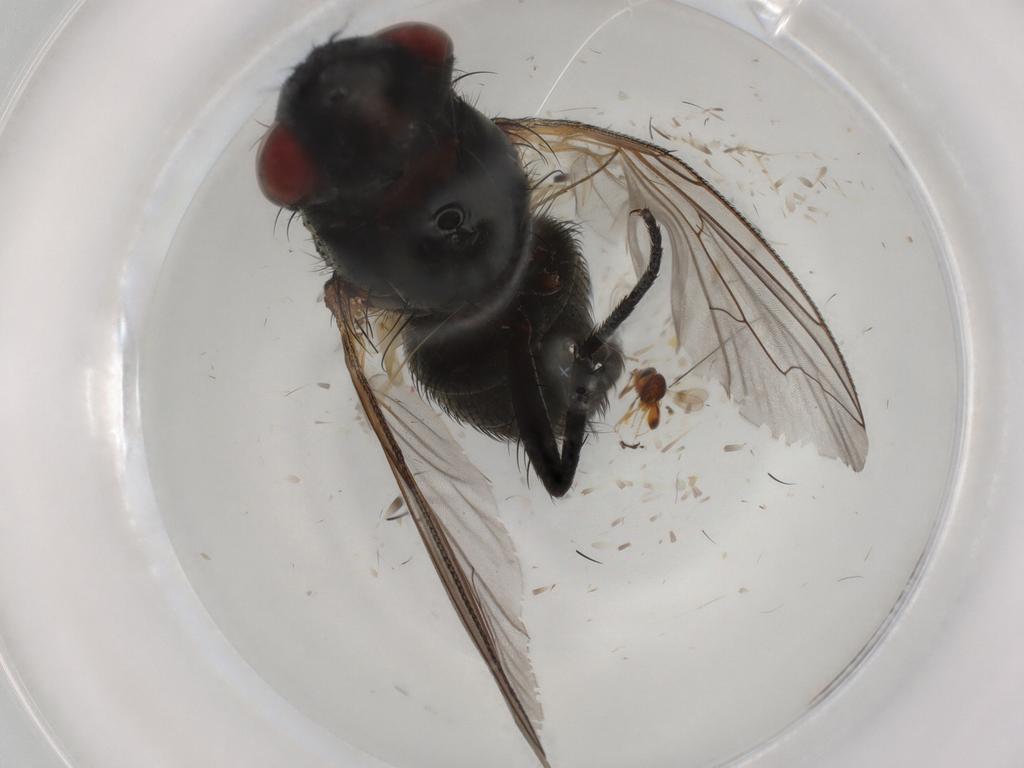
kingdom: Animalia
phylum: Arthropoda
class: Insecta
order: Diptera
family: Sarcophagidae
